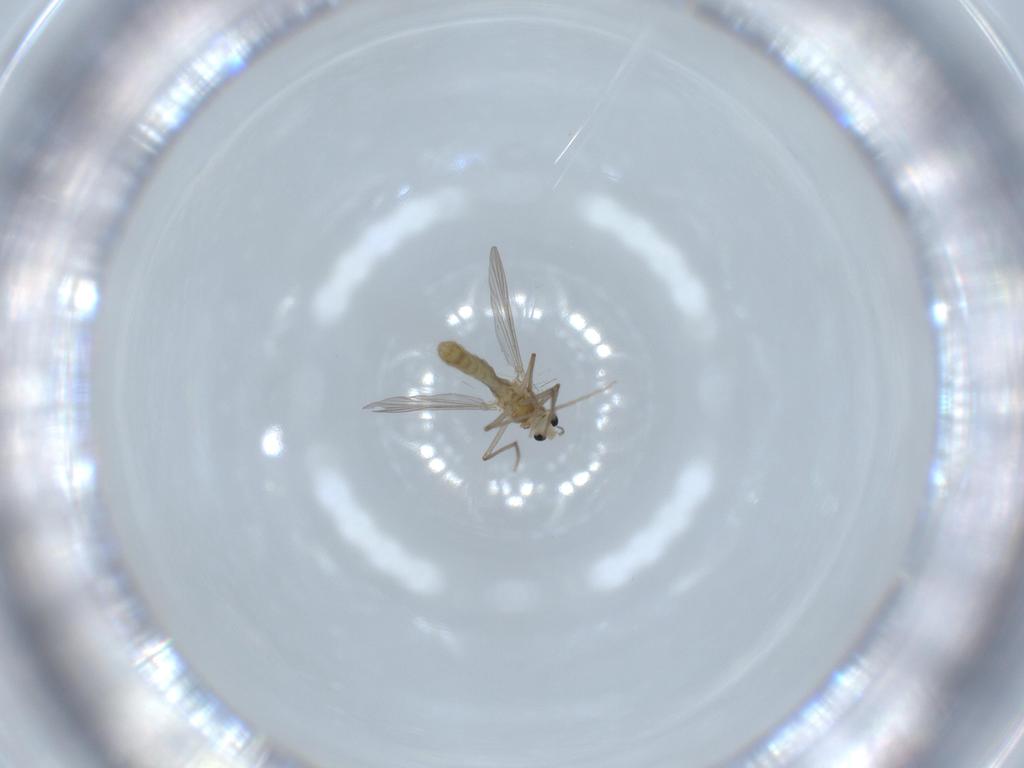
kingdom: Animalia
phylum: Arthropoda
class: Insecta
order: Diptera
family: Chironomidae
